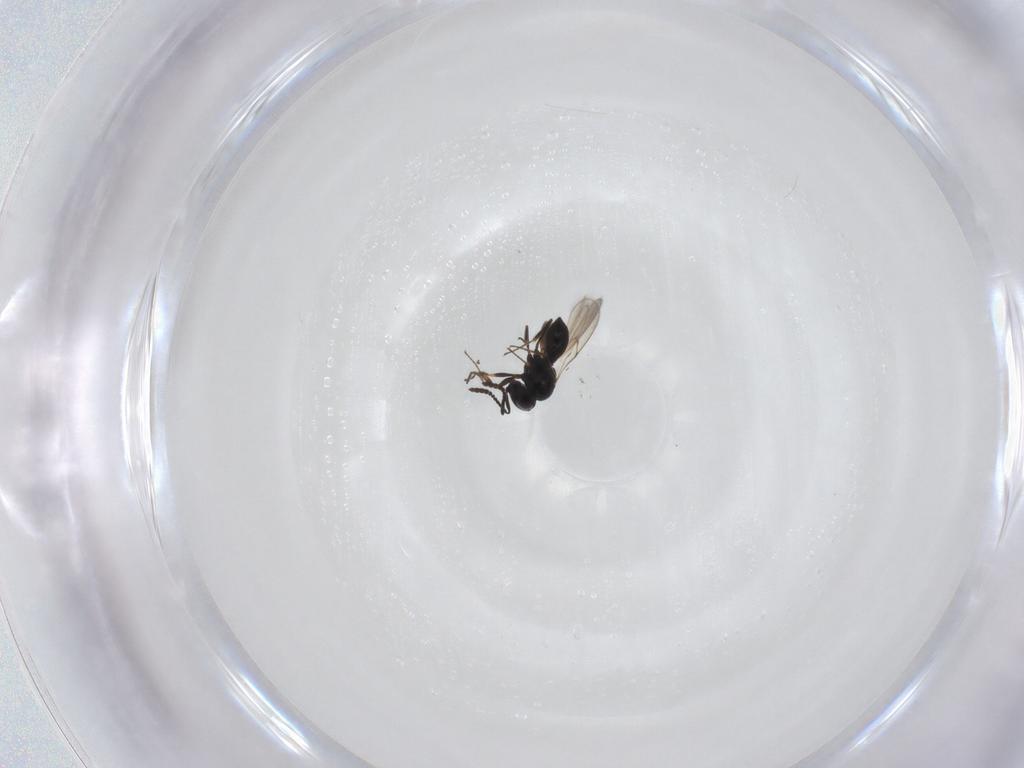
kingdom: Animalia
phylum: Arthropoda
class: Insecta
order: Hymenoptera
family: Scelionidae
